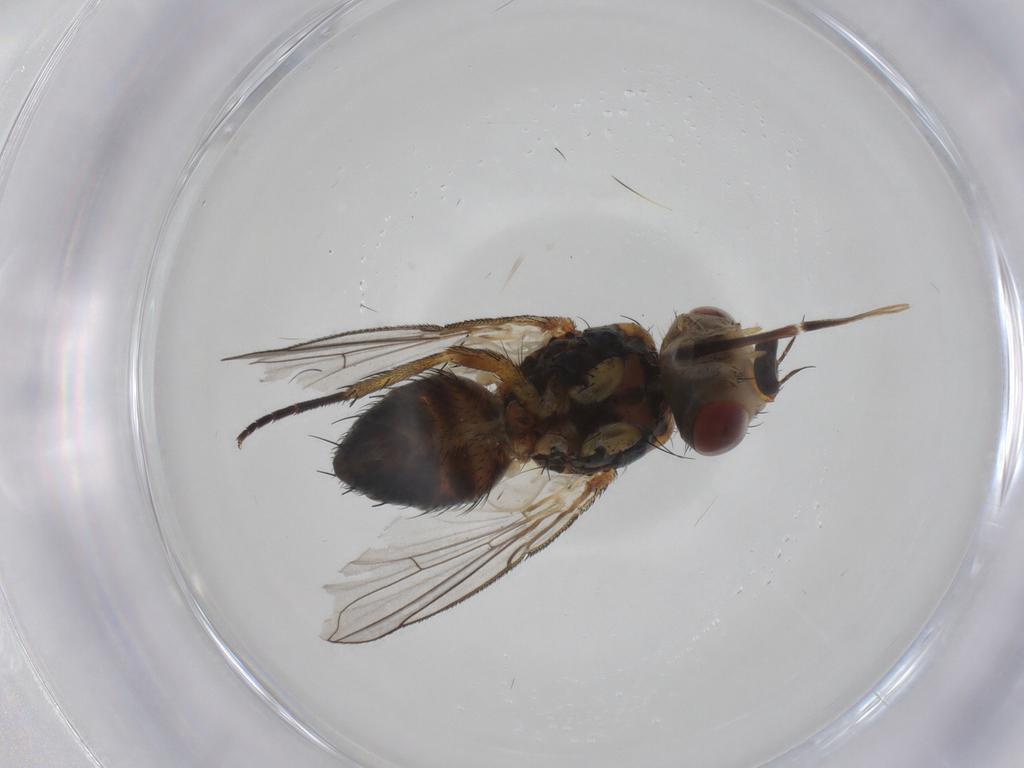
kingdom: Animalia
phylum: Arthropoda
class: Insecta
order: Diptera
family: Tachinidae
